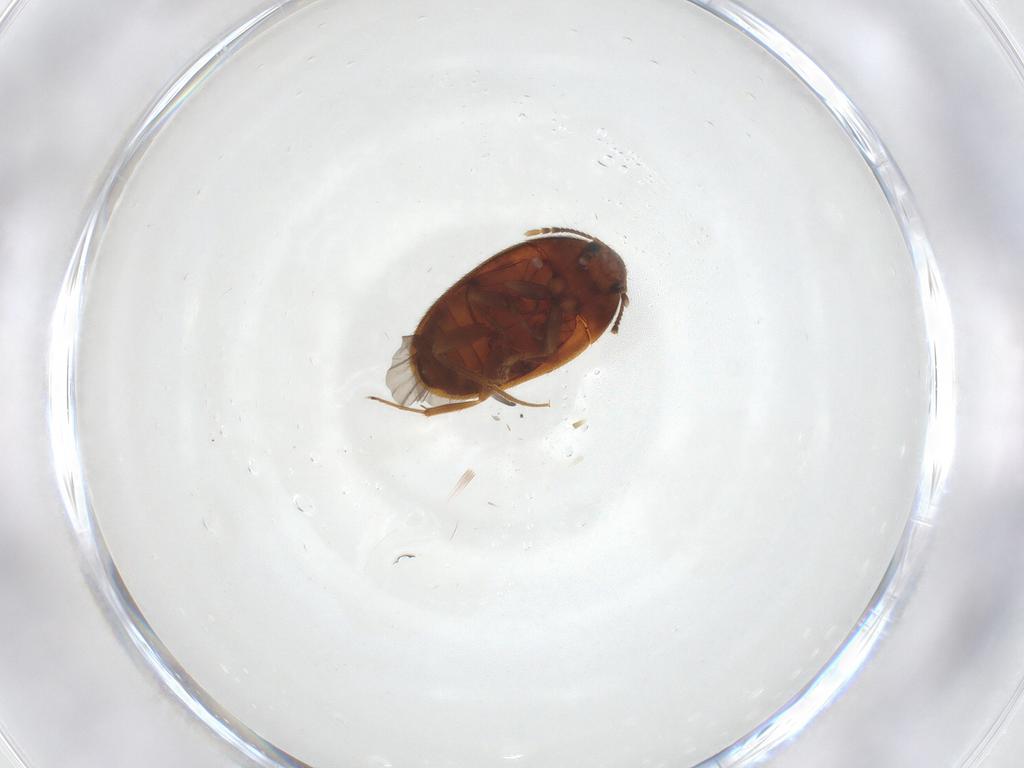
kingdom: Animalia
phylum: Arthropoda
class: Insecta
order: Coleoptera
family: Mycetophagidae
